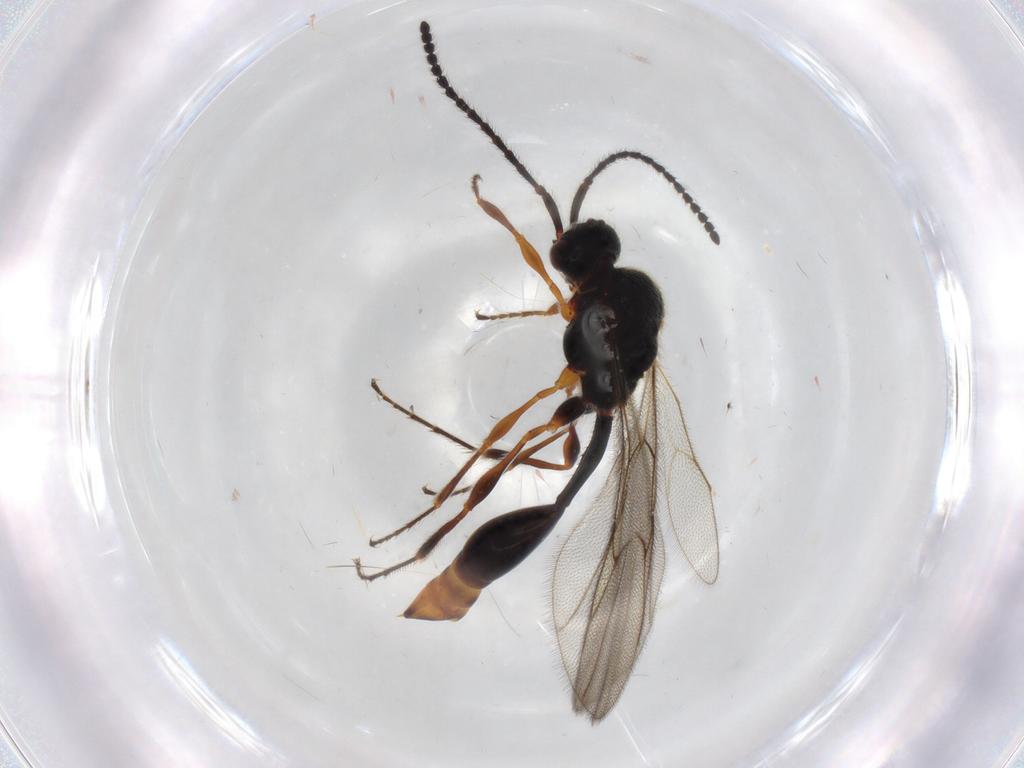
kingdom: Animalia
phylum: Arthropoda
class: Insecta
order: Hymenoptera
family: Diapriidae
